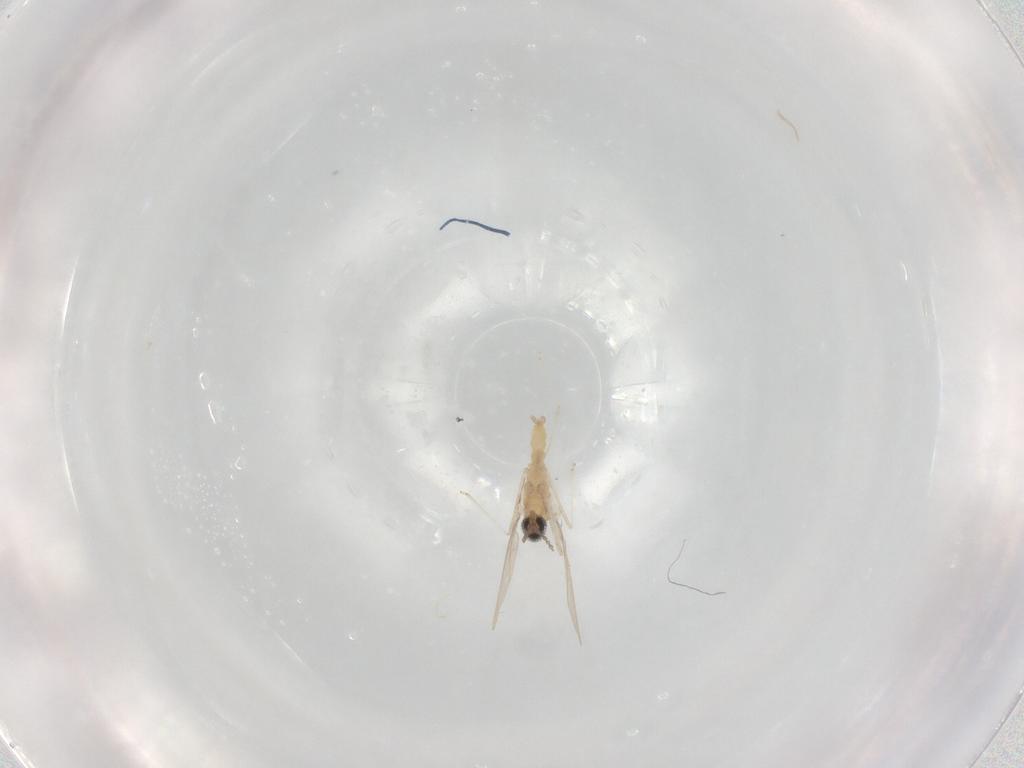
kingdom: Animalia
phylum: Arthropoda
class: Insecta
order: Diptera
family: Cecidomyiidae
